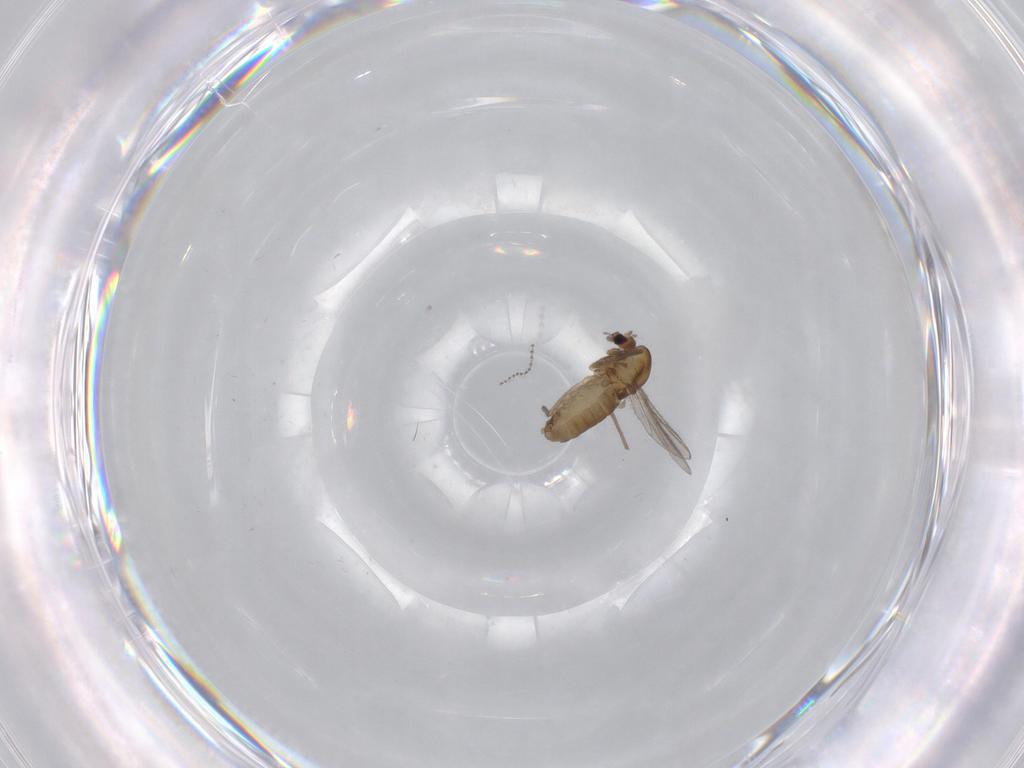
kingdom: Animalia
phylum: Arthropoda
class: Insecta
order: Diptera
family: Chironomidae
